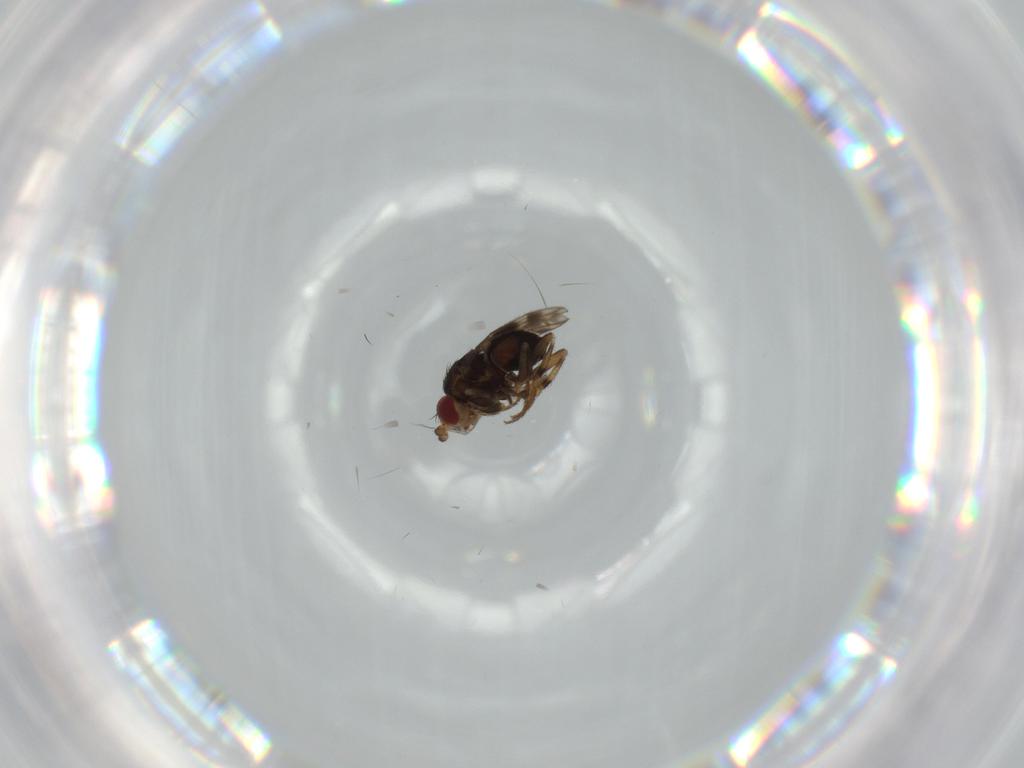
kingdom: Animalia
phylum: Arthropoda
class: Insecta
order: Diptera
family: Sphaeroceridae
